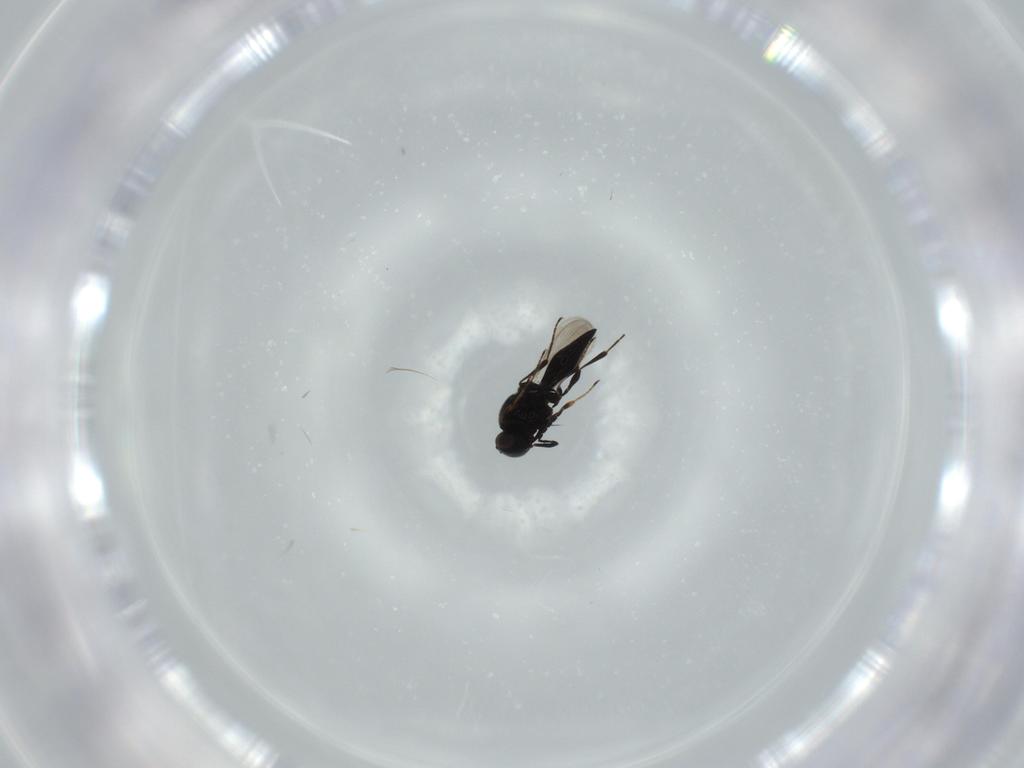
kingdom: Animalia
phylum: Arthropoda
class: Insecta
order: Diptera
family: Mythicomyiidae
